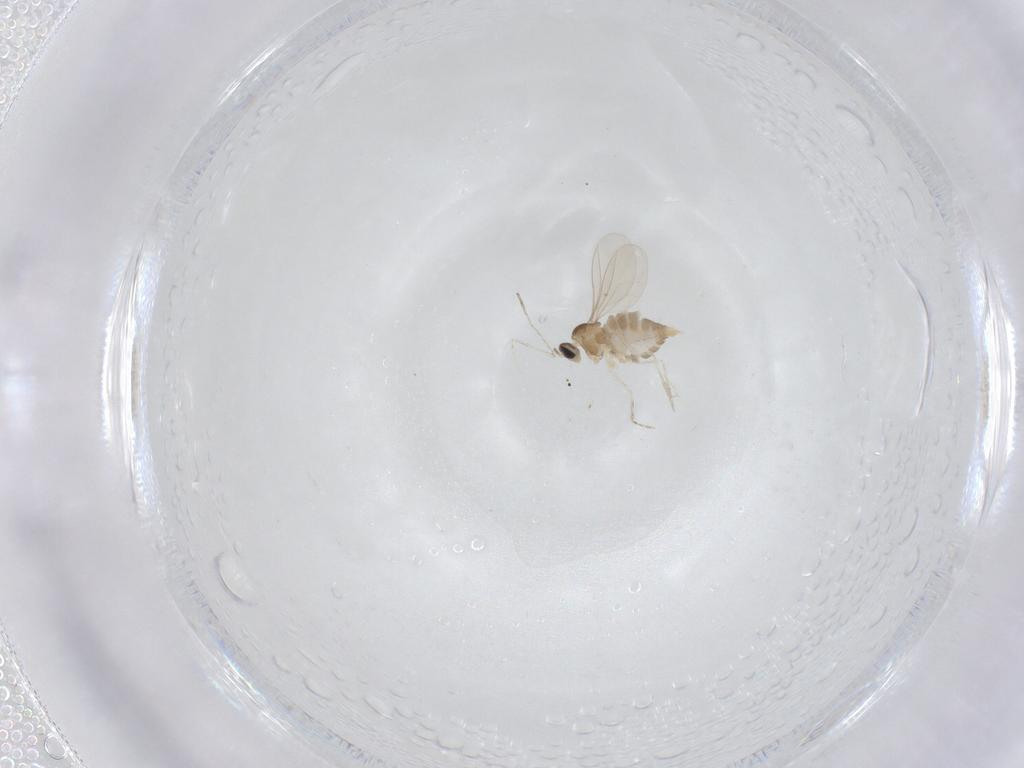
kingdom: Animalia
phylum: Arthropoda
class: Insecta
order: Diptera
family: Cecidomyiidae
